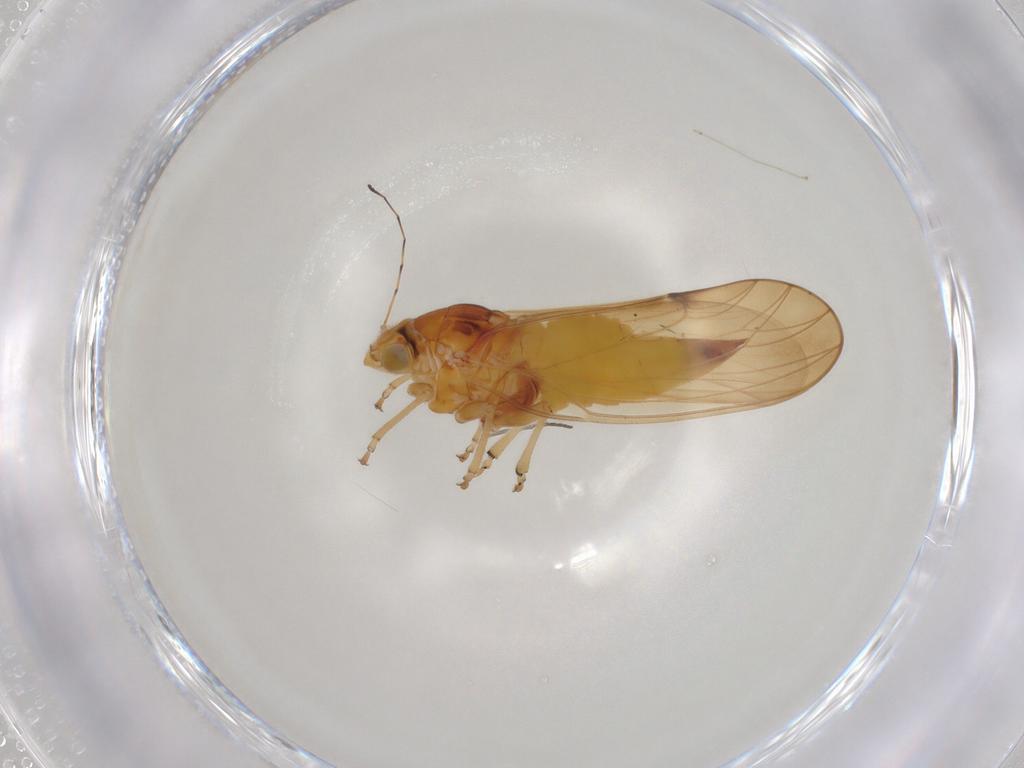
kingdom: Animalia
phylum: Arthropoda
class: Insecta
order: Diptera
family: Sciaridae
